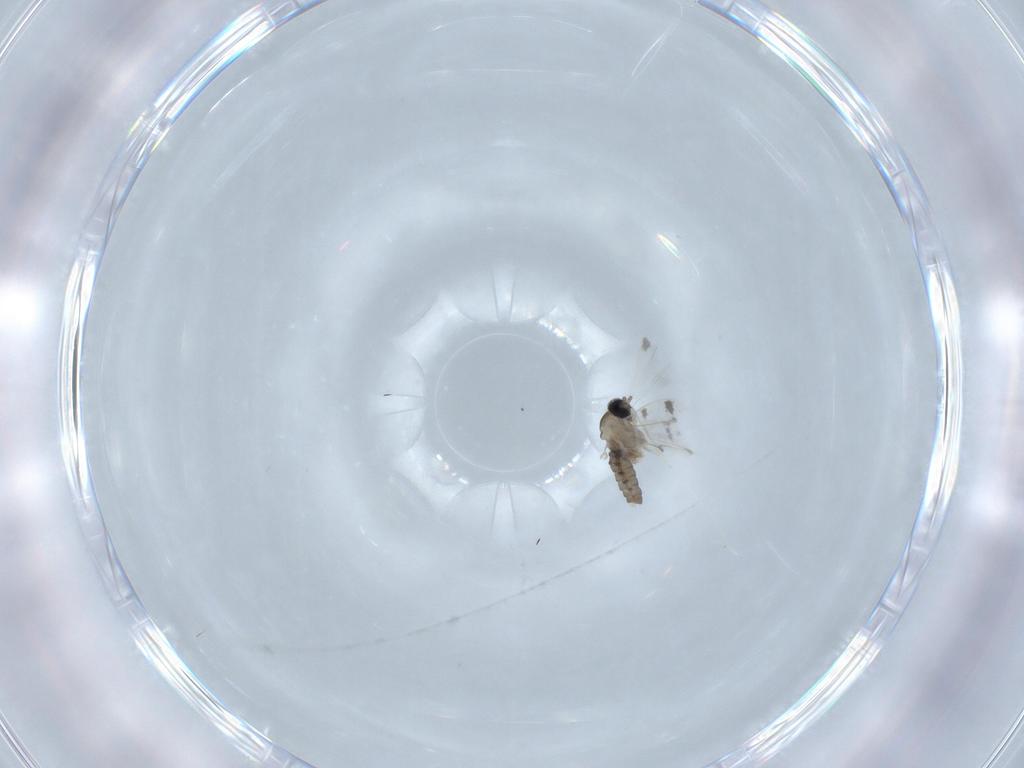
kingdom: Animalia
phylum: Arthropoda
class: Insecta
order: Diptera
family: Cecidomyiidae
